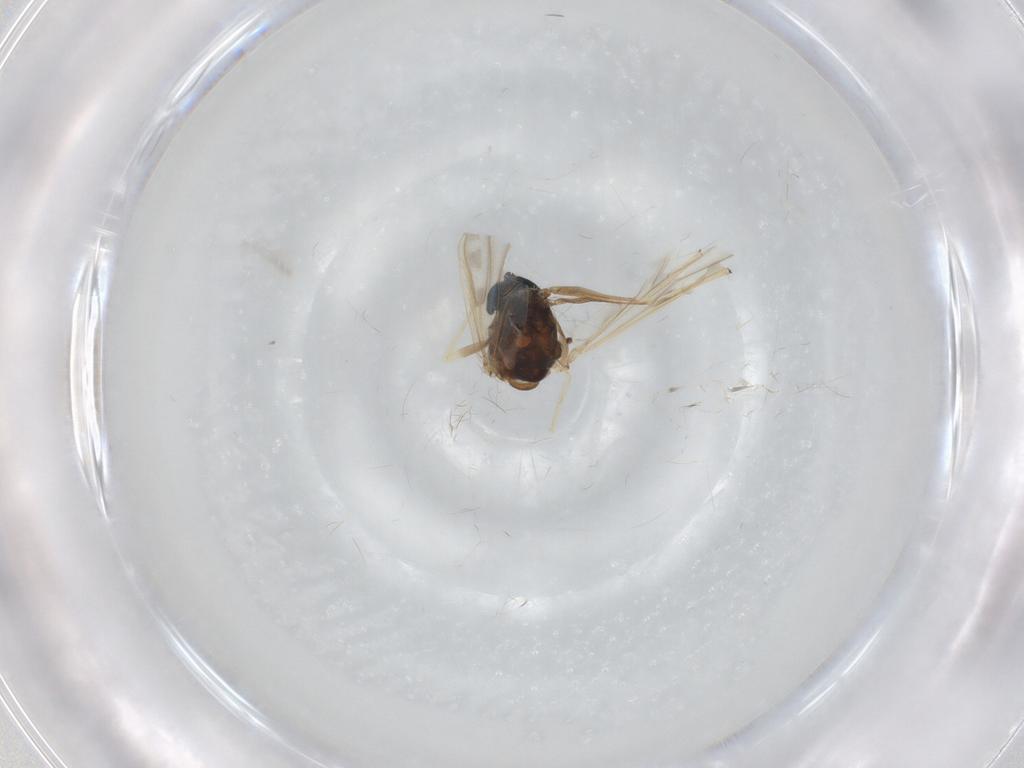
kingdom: Animalia
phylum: Arthropoda
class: Insecta
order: Diptera
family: Chironomidae
